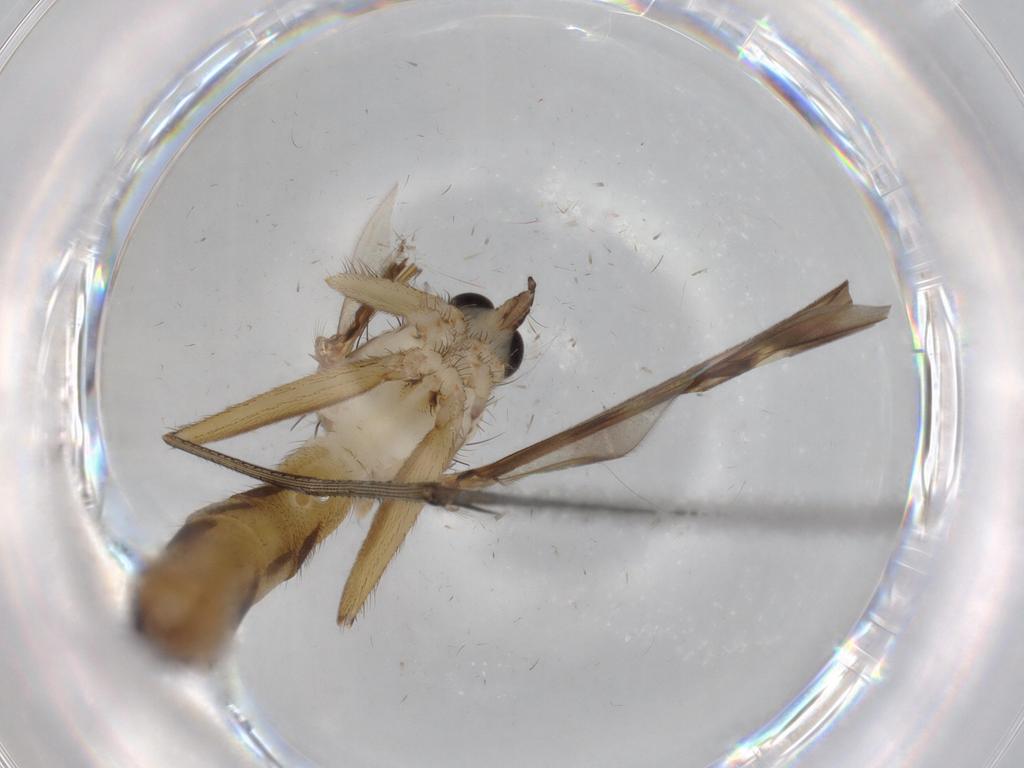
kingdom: Animalia
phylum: Arthropoda
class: Insecta
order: Diptera
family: Mycetophilidae
